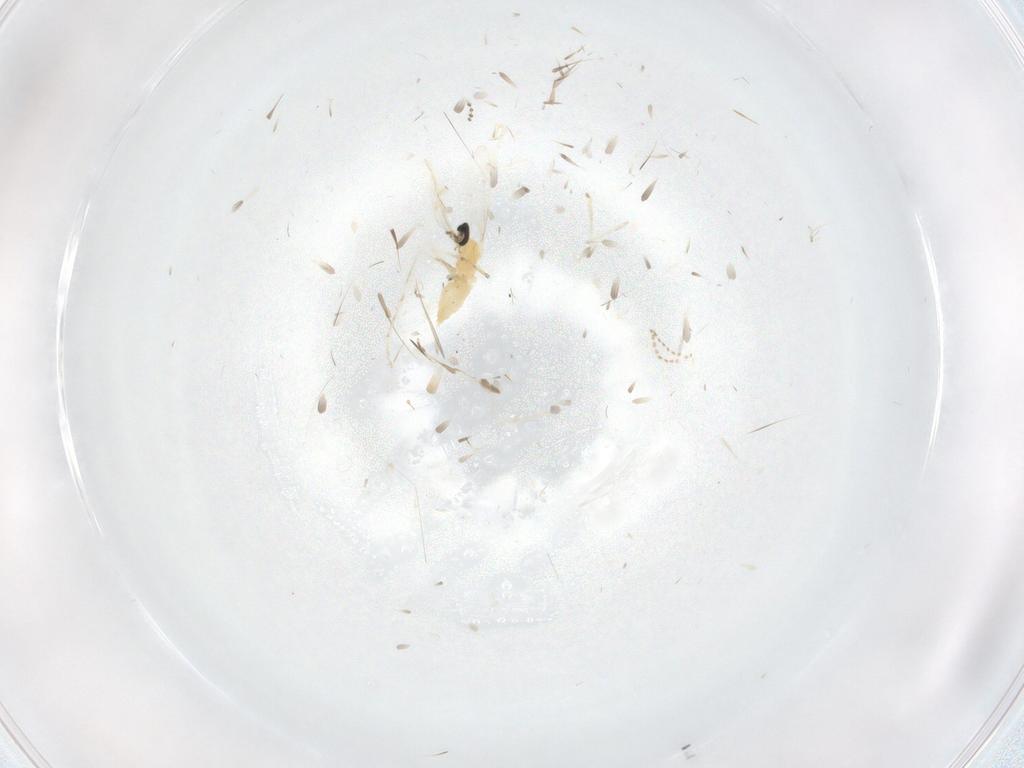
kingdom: Animalia
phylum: Arthropoda
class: Insecta
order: Diptera
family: Cecidomyiidae
